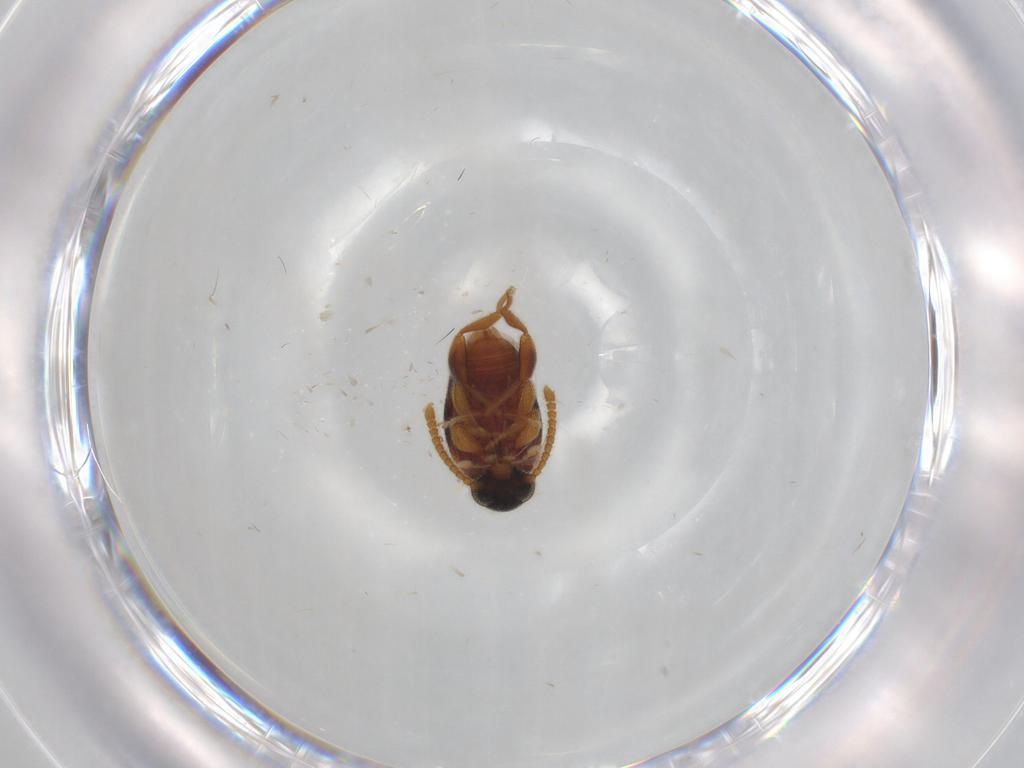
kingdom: Animalia
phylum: Arthropoda
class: Insecta
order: Coleoptera
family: Aderidae
